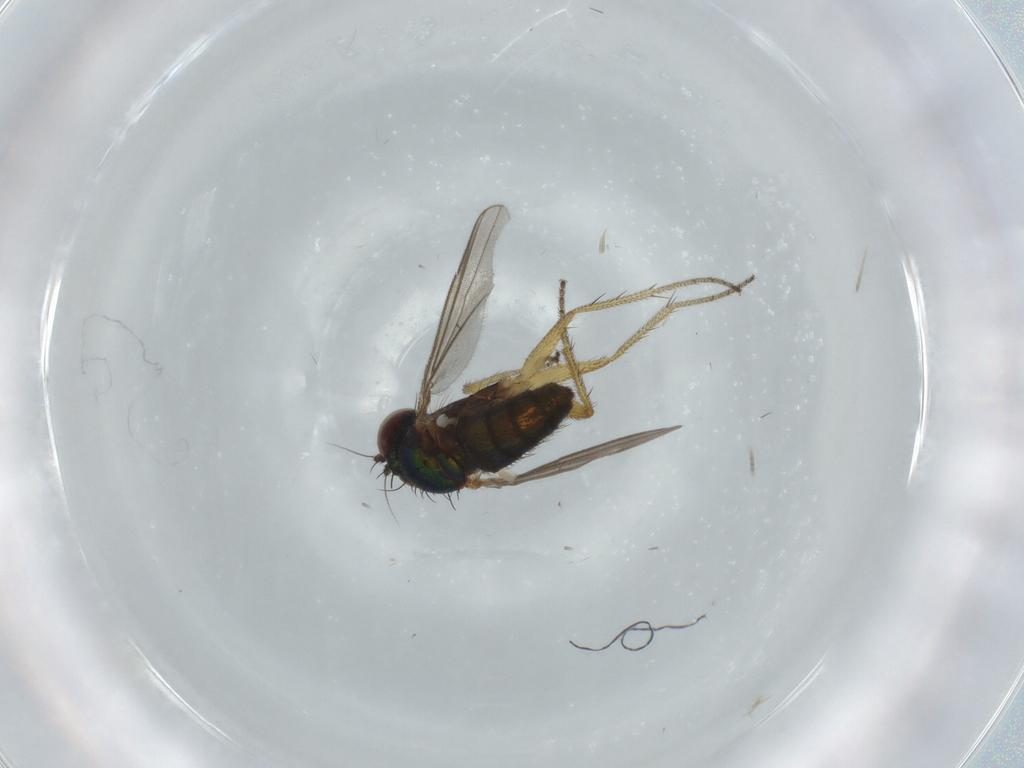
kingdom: Animalia
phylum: Arthropoda
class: Insecta
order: Diptera
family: Dolichopodidae
